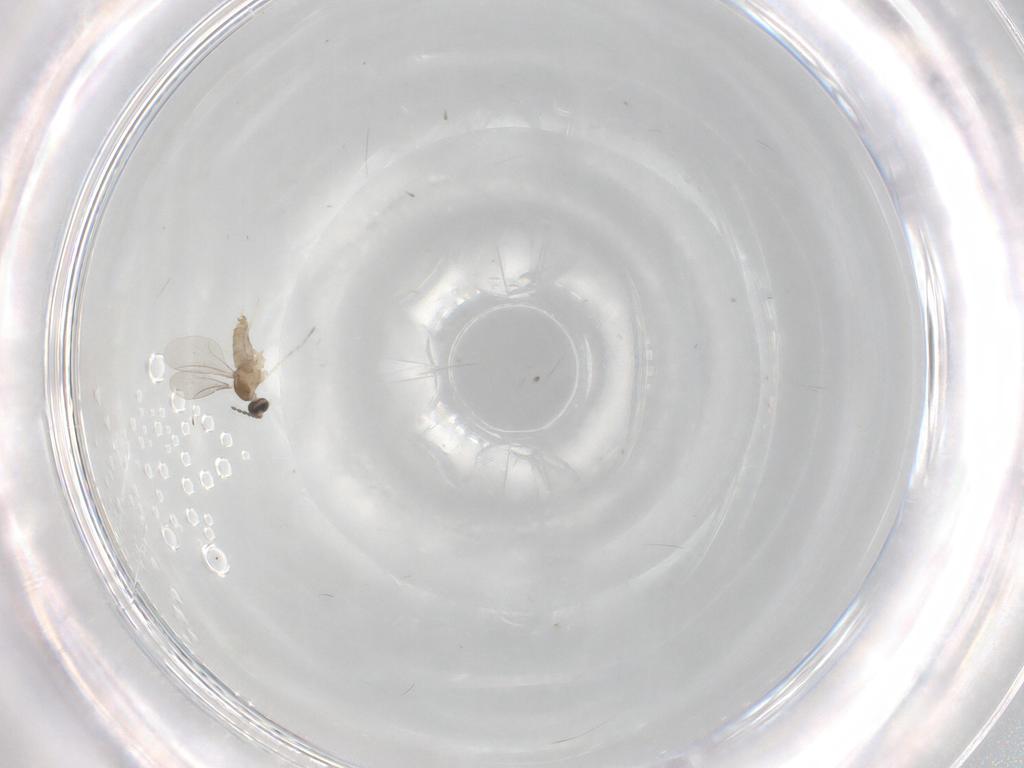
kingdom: Animalia
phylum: Arthropoda
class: Insecta
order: Diptera
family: Cecidomyiidae
